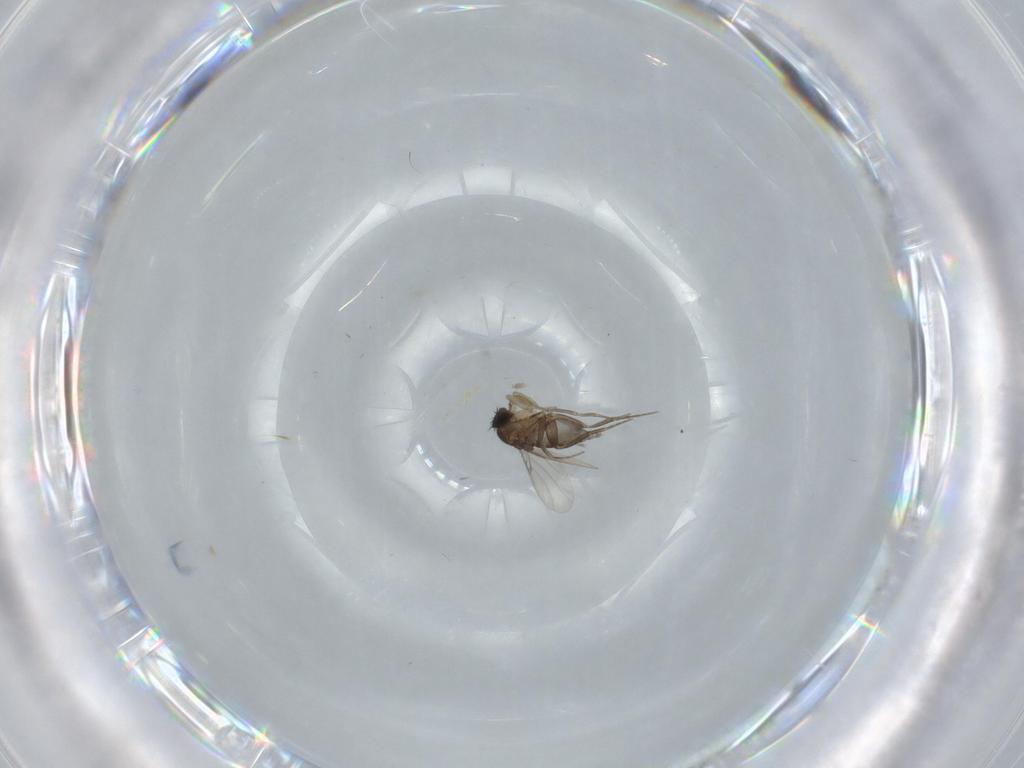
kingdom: Animalia
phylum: Arthropoda
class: Insecta
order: Diptera
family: Phoridae
